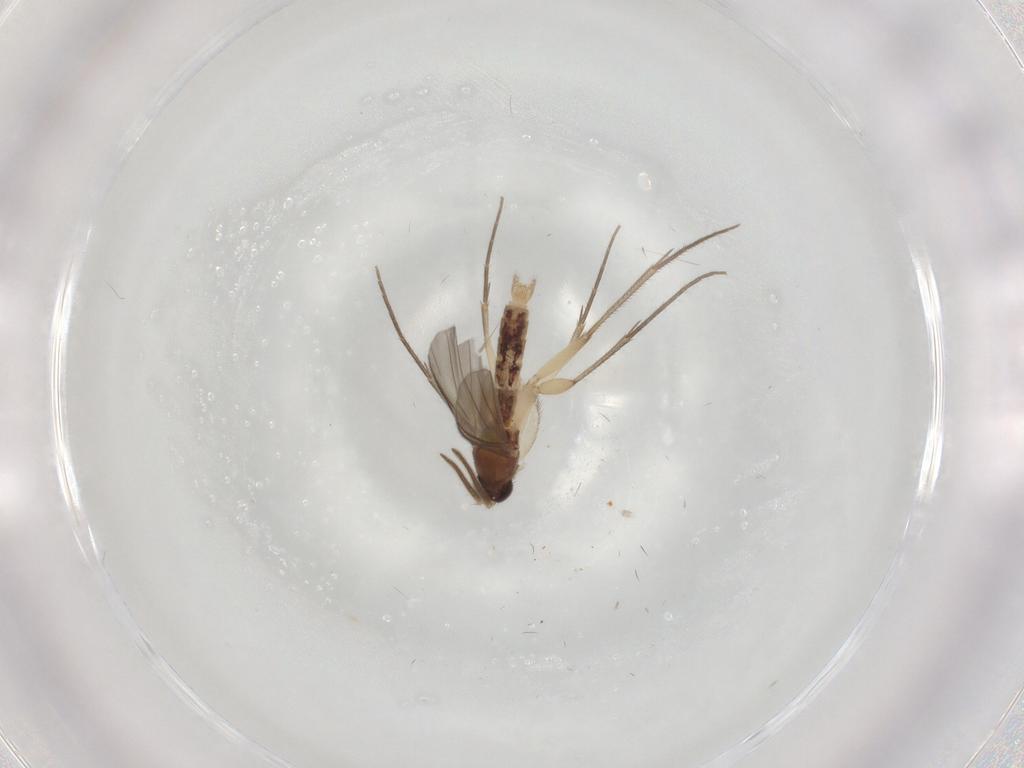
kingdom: Animalia
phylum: Arthropoda
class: Insecta
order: Diptera
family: Mycetophilidae
